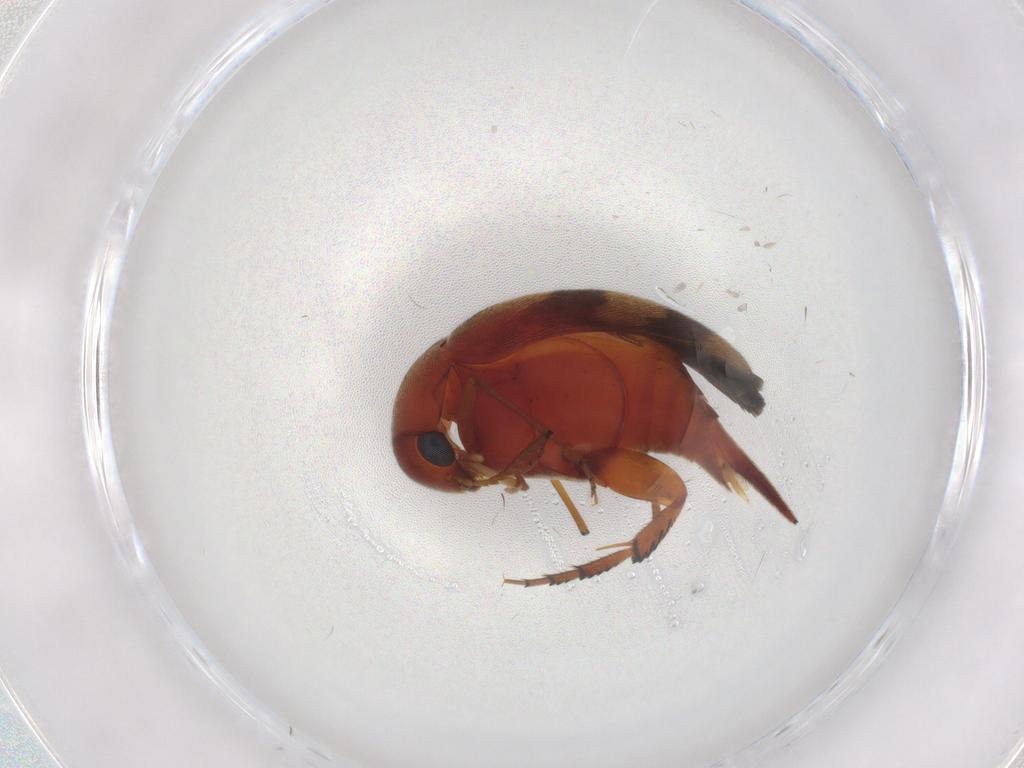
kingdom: Animalia
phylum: Arthropoda
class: Insecta
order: Coleoptera
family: Mordellidae
